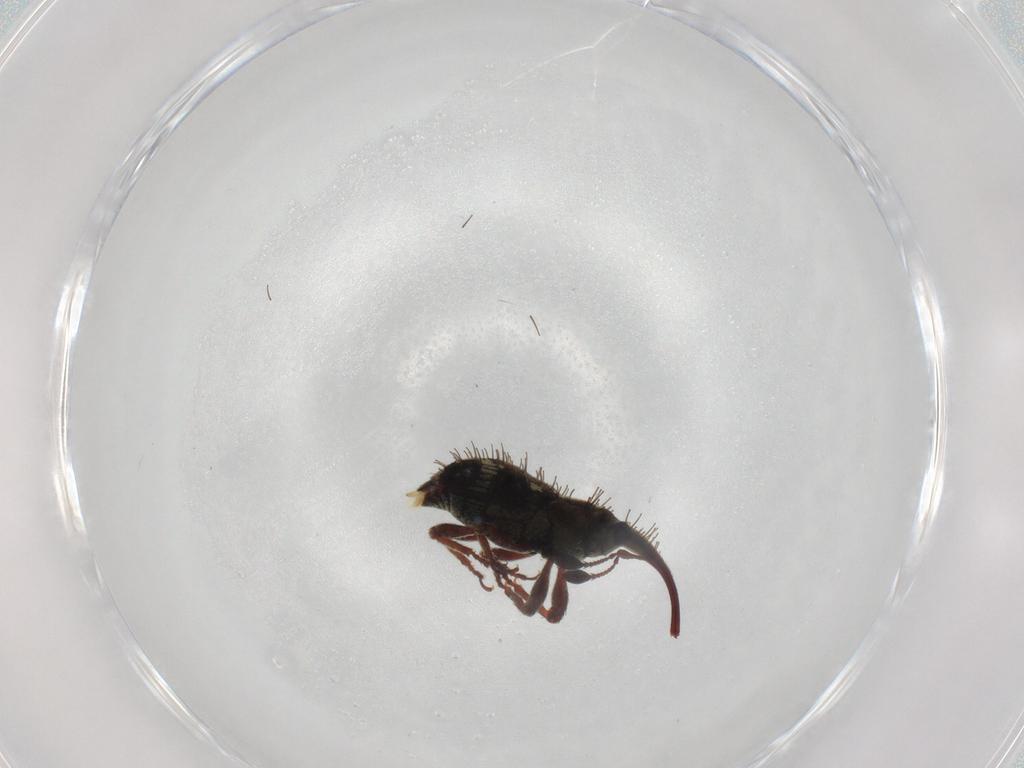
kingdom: Animalia
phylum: Arthropoda
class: Insecta
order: Coleoptera
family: Curculionidae
